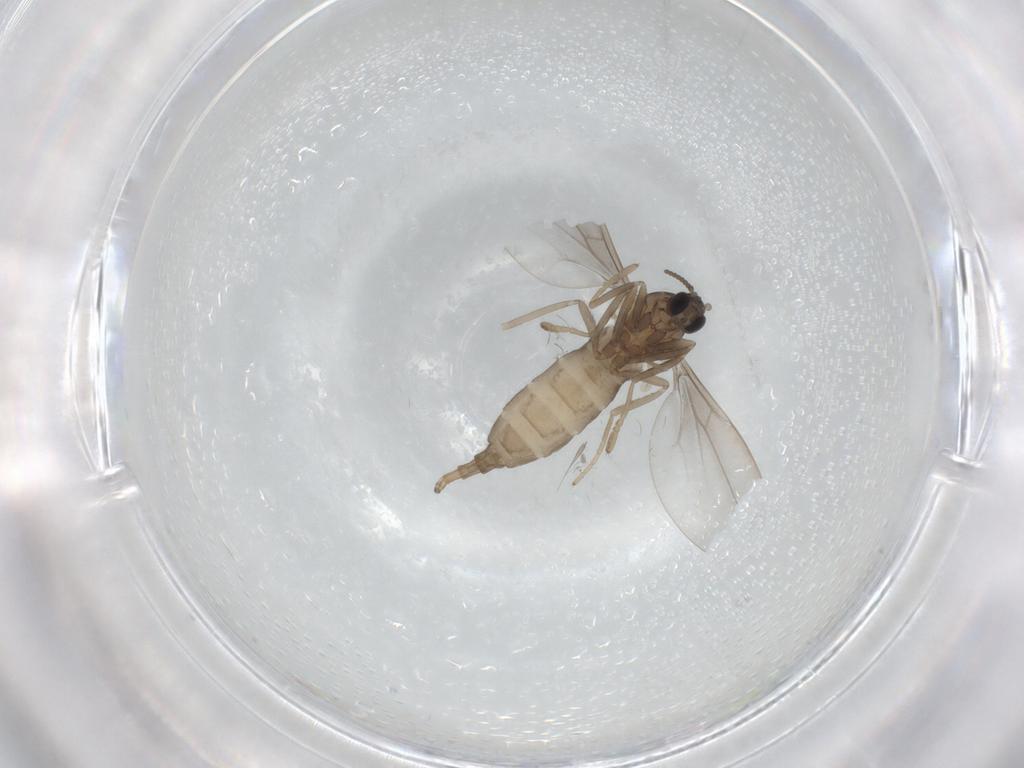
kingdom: Animalia
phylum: Arthropoda
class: Insecta
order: Diptera
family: Cecidomyiidae
